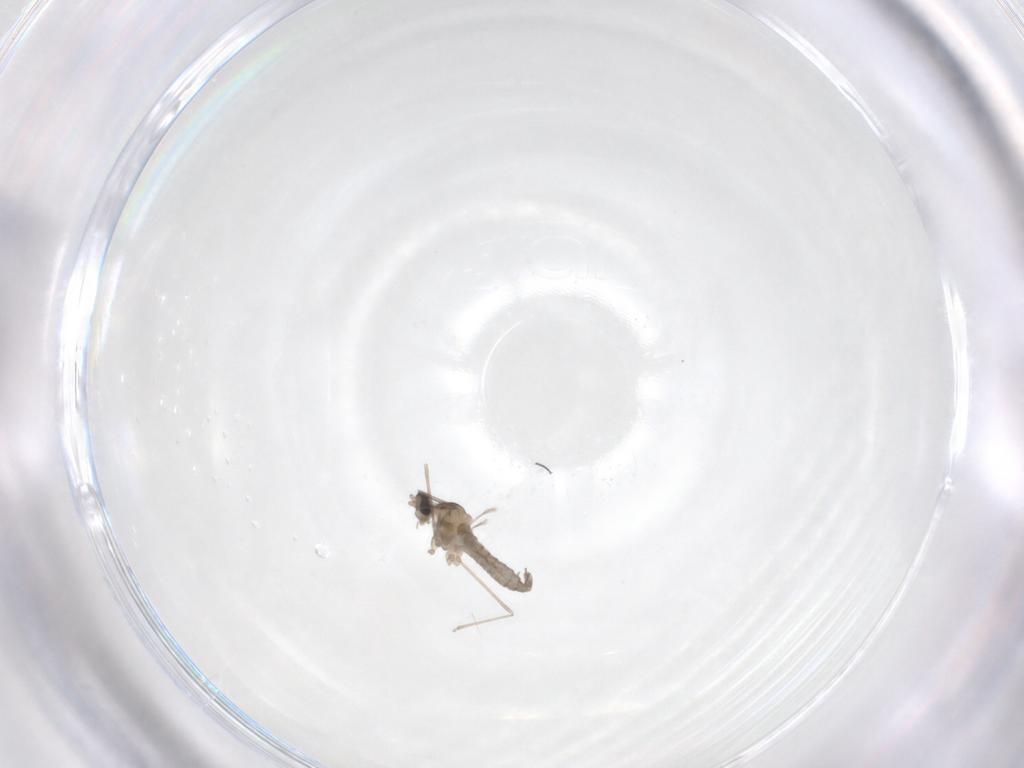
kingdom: Animalia
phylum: Arthropoda
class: Insecta
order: Diptera
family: Cecidomyiidae
